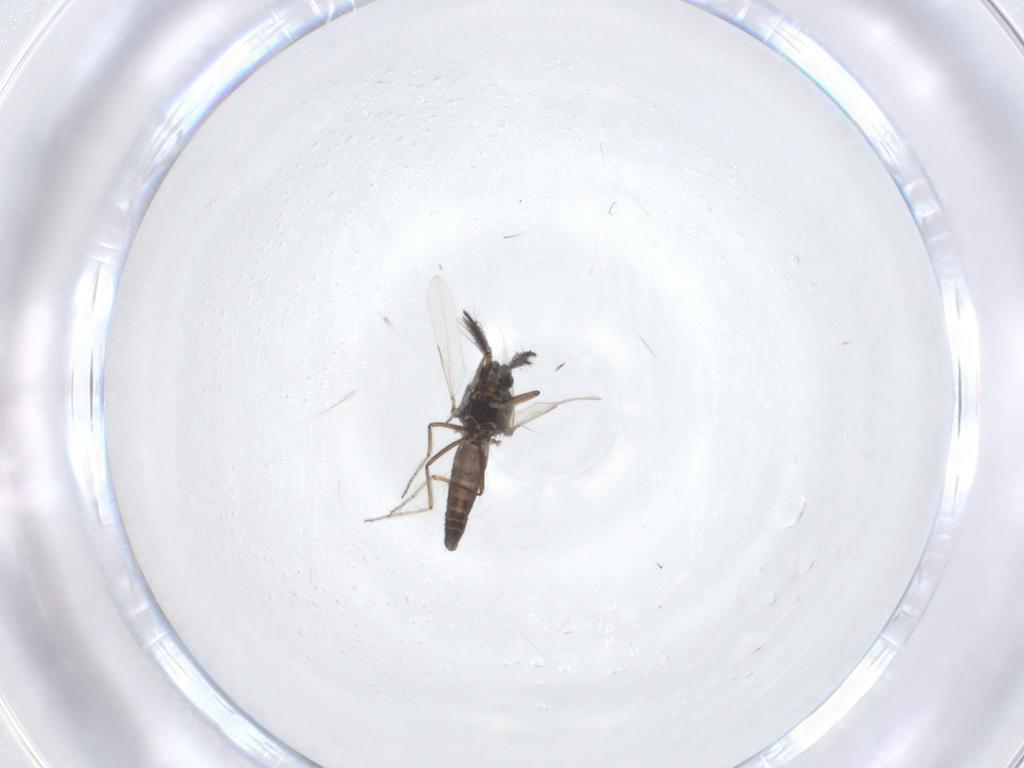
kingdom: Animalia
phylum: Arthropoda
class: Insecta
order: Diptera
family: Ceratopogonidae
